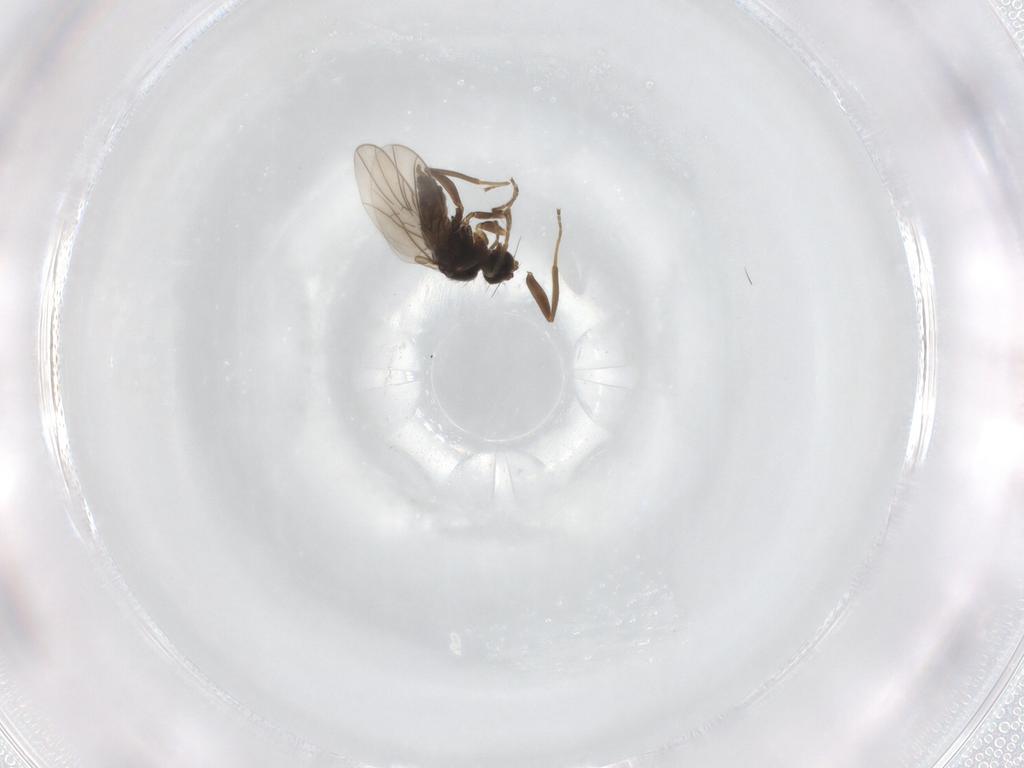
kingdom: Animalia
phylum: Arthropoda
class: Insecta
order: Diptera
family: Hybotidae
